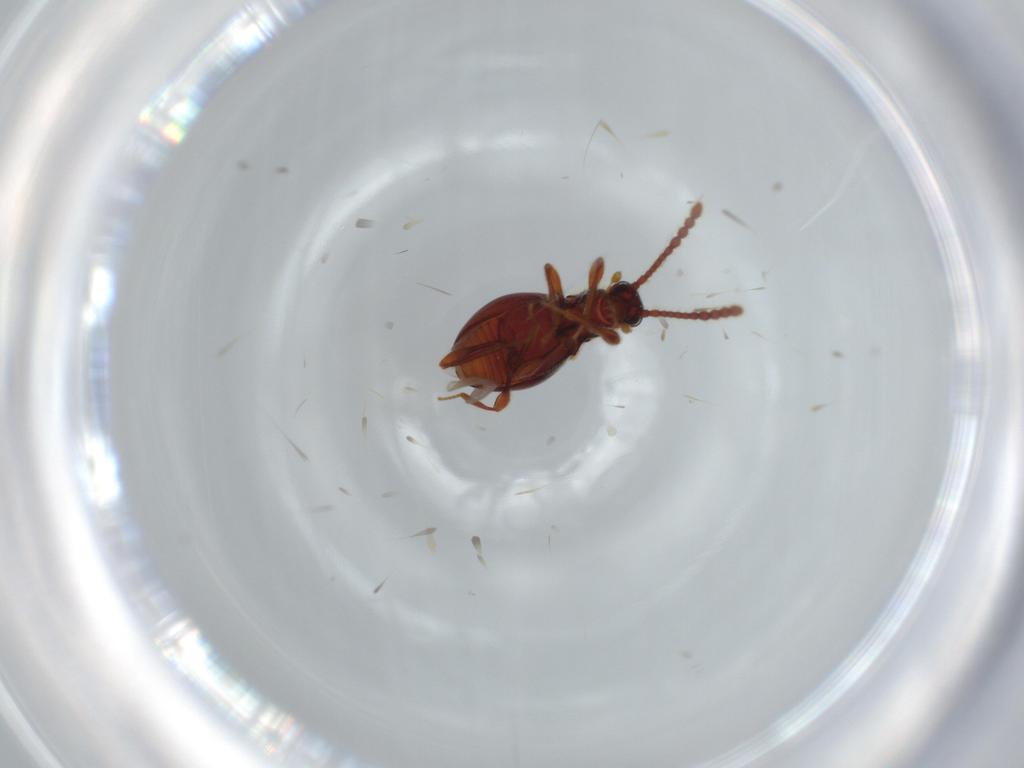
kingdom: Animalia
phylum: Arthropoda
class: Insecta
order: Coleoptera
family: Staphylinidae
